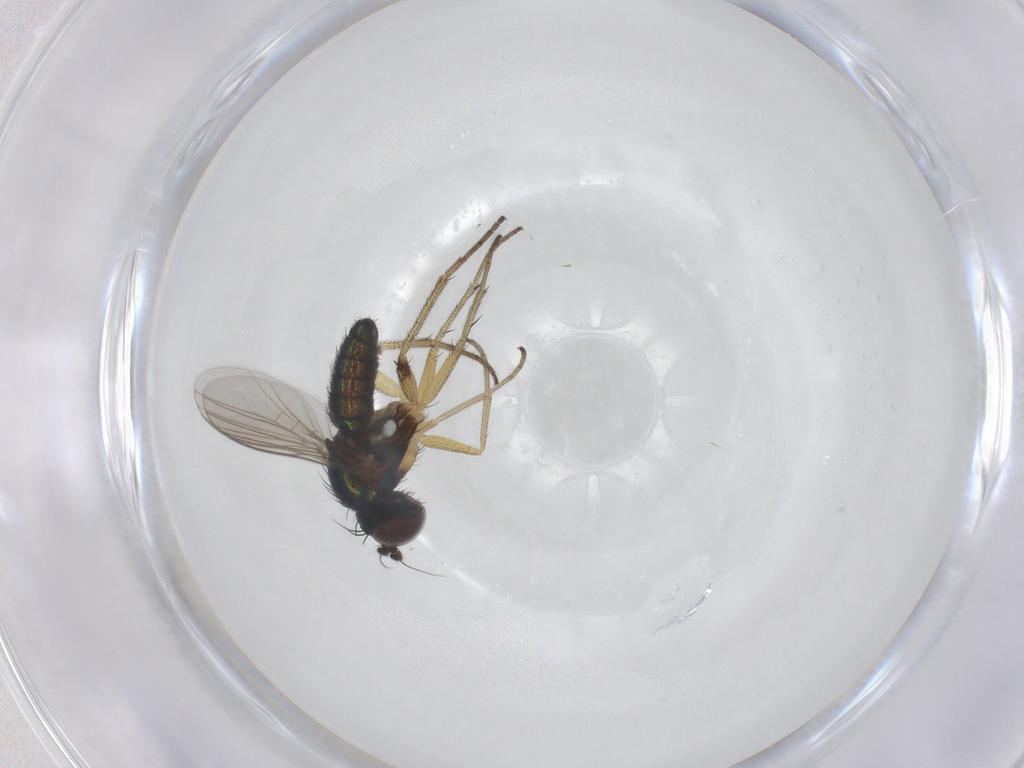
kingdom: Animalia
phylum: Arthropoda
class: Insecta
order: Diptera
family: Dolichopodidae
